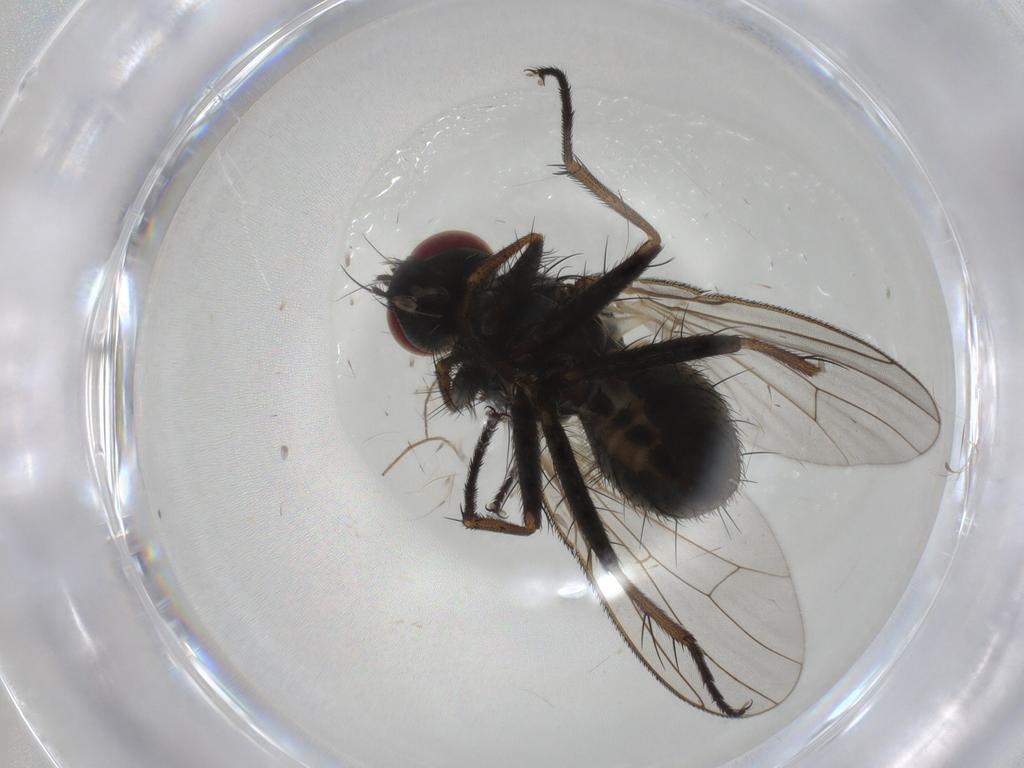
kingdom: Animalia
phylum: Arthropoda
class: Insecta
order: Diptera
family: Muscidae
